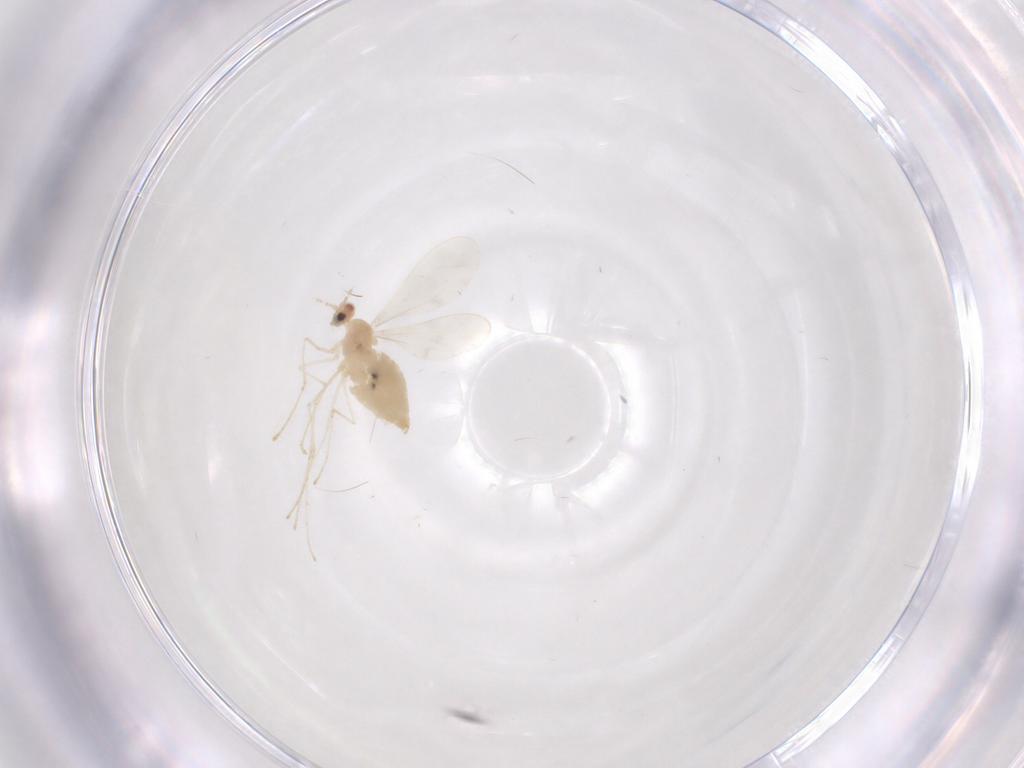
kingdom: Animalia
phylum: Arthropoda
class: Insecta
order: Diptera
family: Cecidomyiidae
